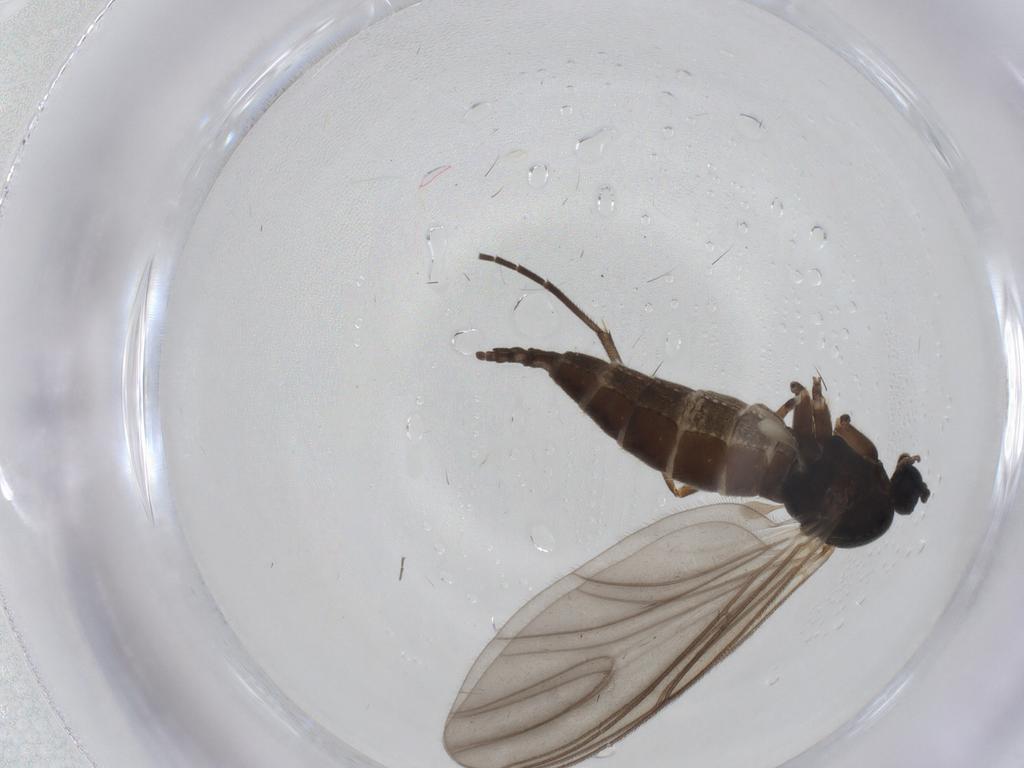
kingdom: Animalia
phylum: Arthropoda
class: Insecta
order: Diptera
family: Sciaridae
